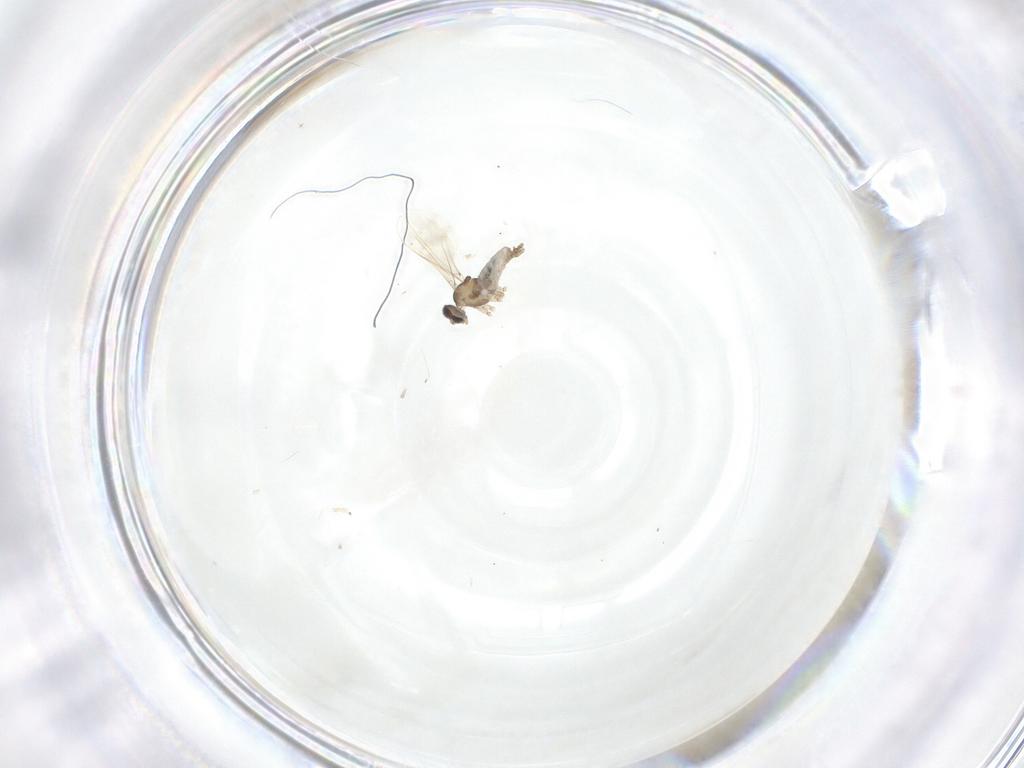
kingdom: Animalia
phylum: Arthropoda
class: Insecta
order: Diptera
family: Cecidomyiidae
